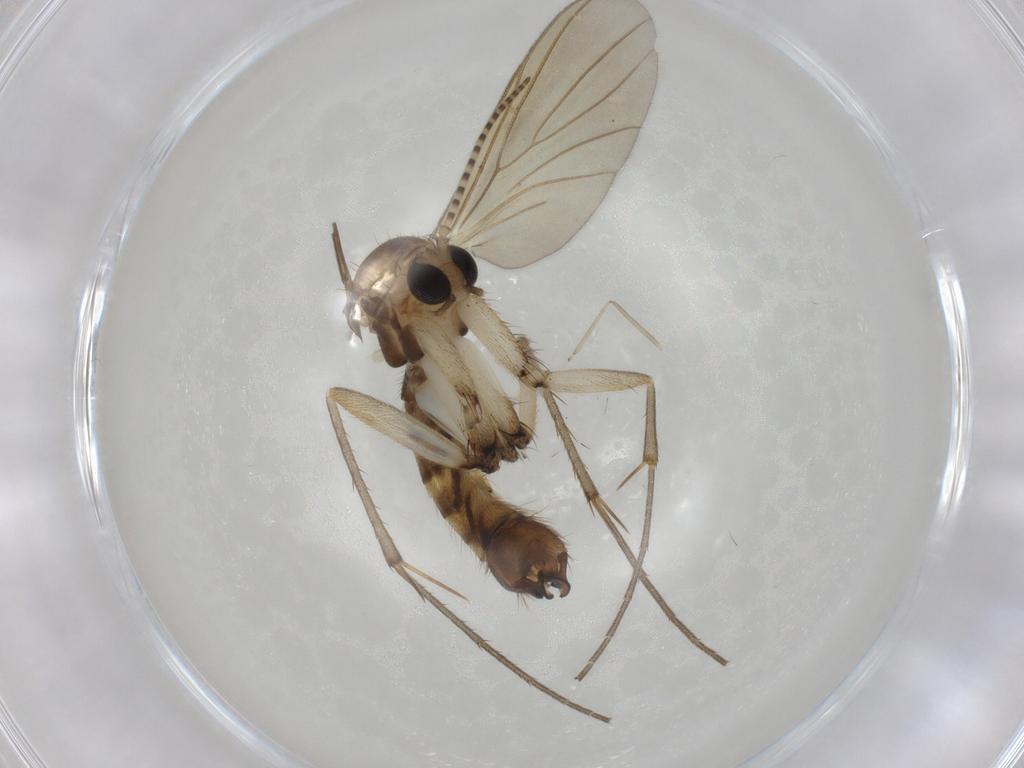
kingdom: Animalia
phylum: Arthropoda
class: Insecta
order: Diptera
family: Mycetophilidae
